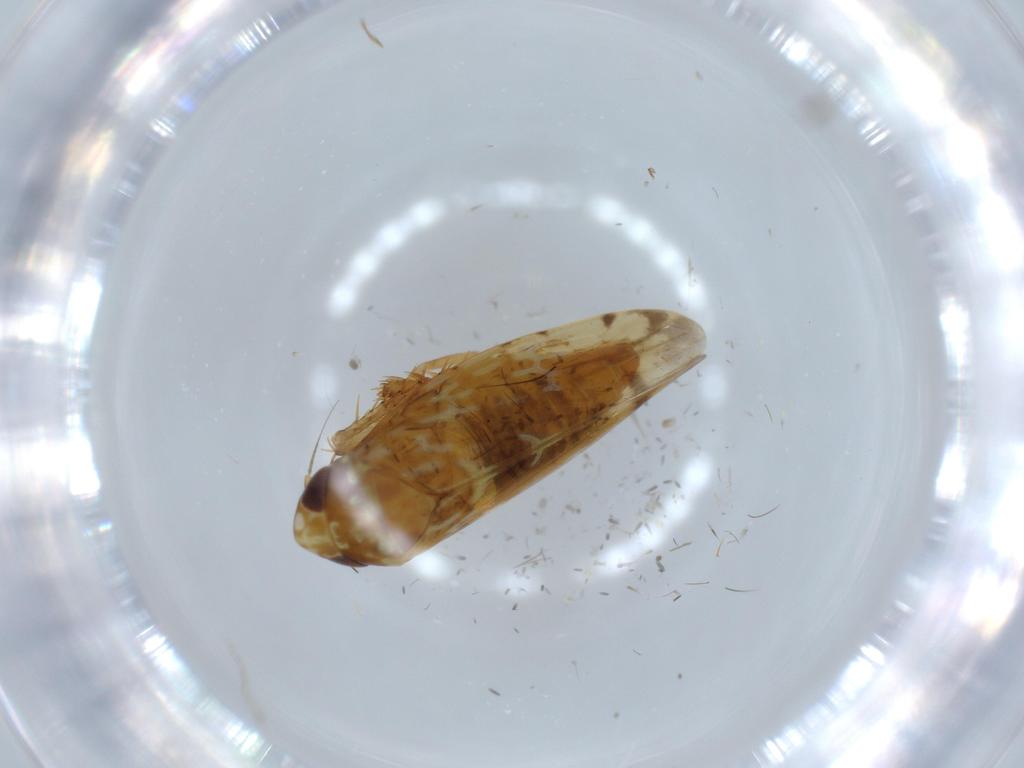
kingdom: Animalia
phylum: Arthropoda
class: Insecta
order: Hemiptera
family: Cicadellidae
